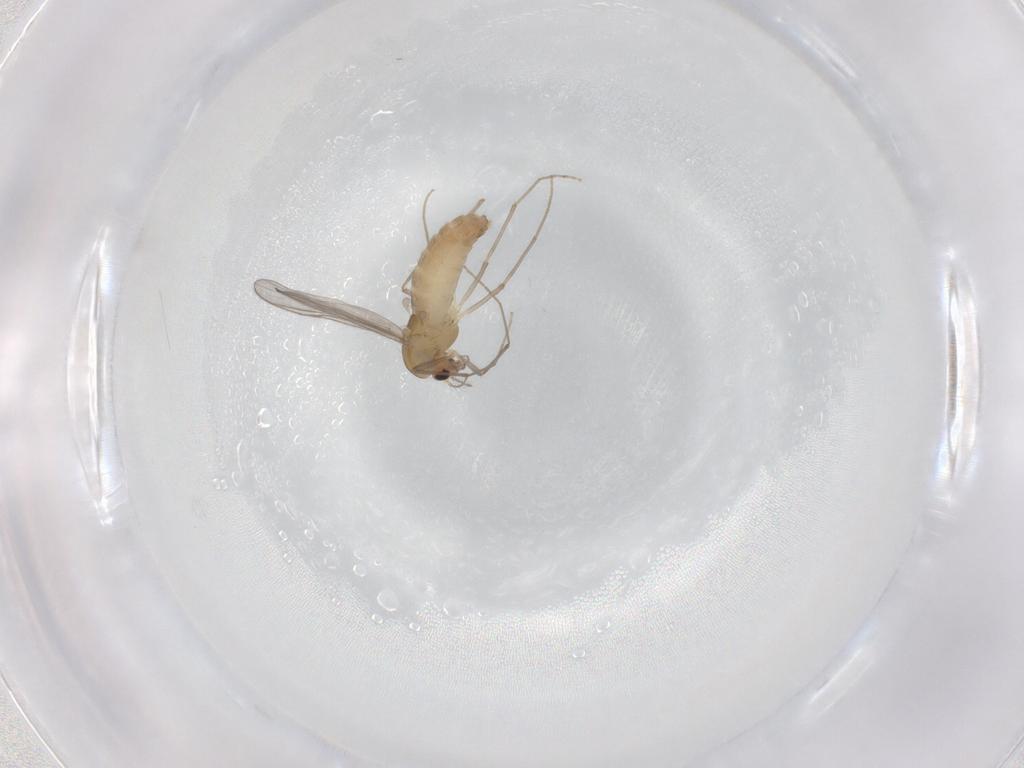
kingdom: Animalia
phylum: Arthropoda
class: Insecta
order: Diptera
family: Chironomidae
